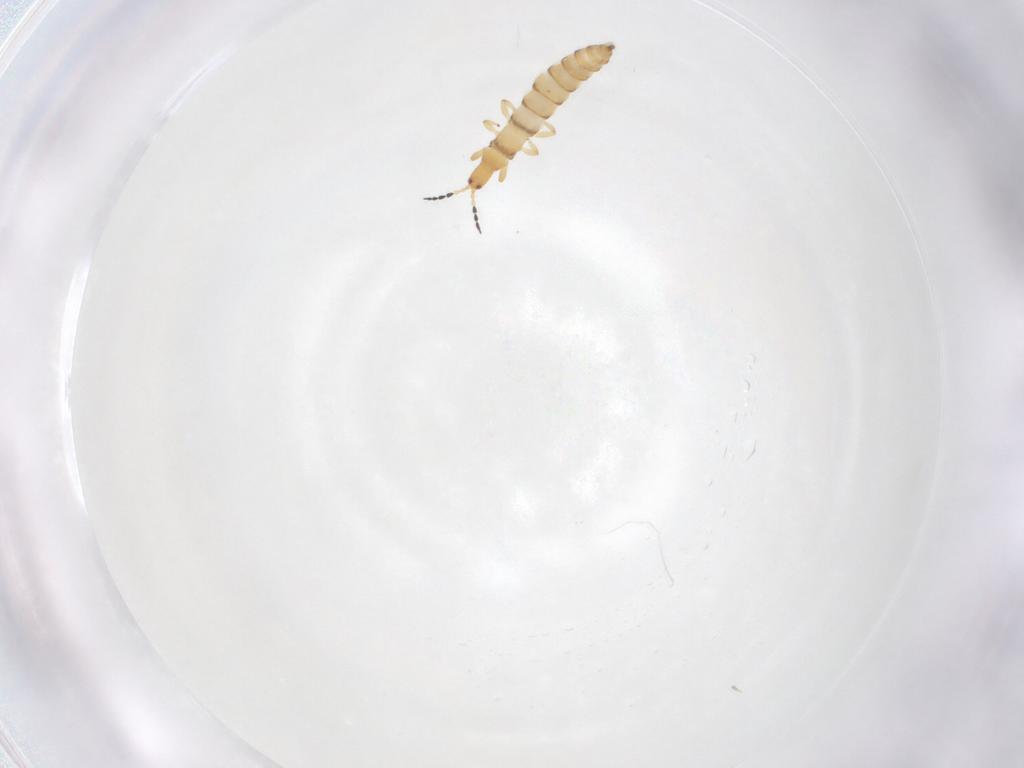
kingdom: Animalia
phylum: Arthropoda
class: Insecta
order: Thysanoptera
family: Phlaeothripidae
